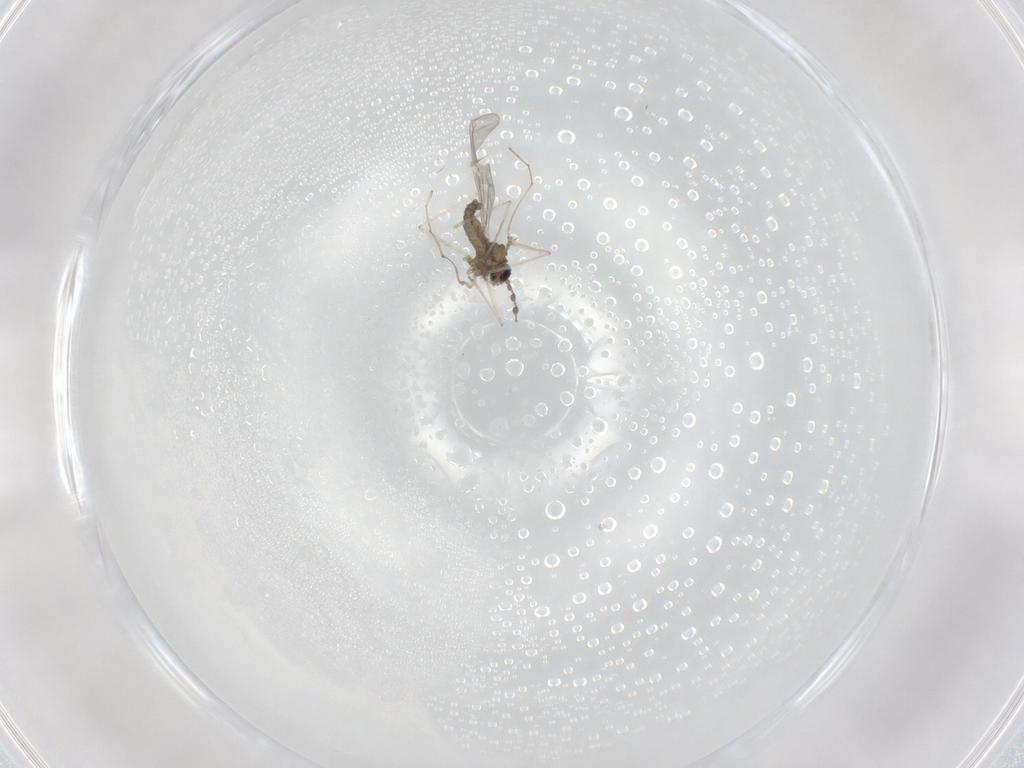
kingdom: Animalia
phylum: Arthropoda
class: Insecta
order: Diptera
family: Cecidomyiidae
